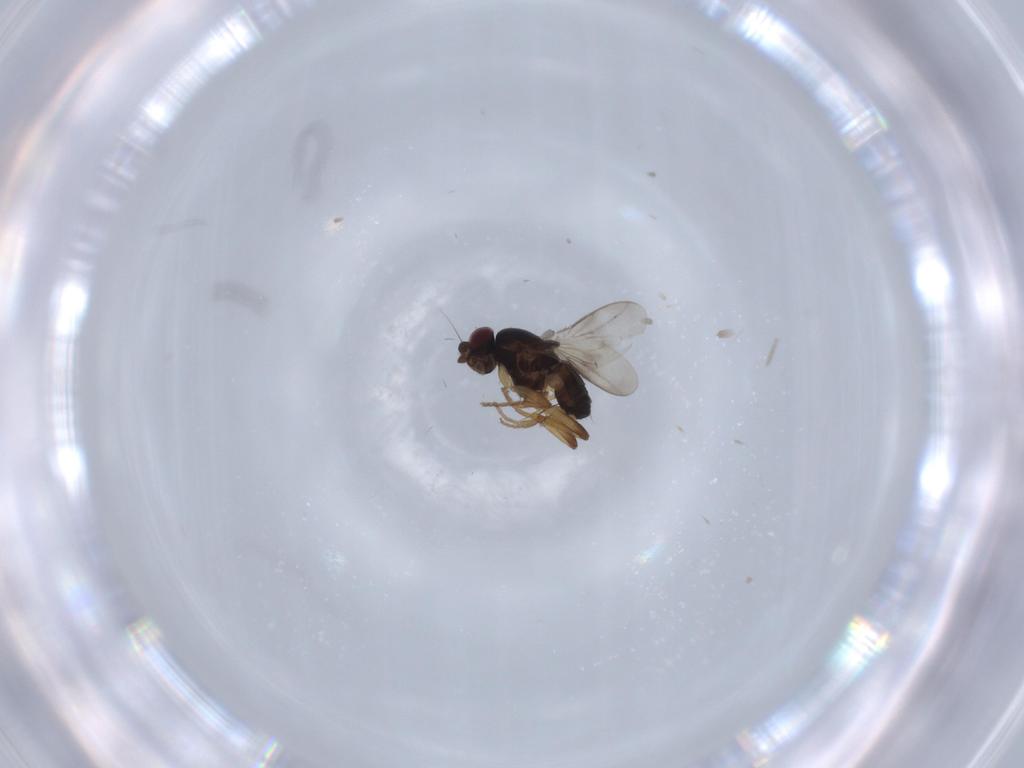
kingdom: Animalia
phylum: Arthropoda
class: Insecta
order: Diptera
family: Sphaeroceridae
